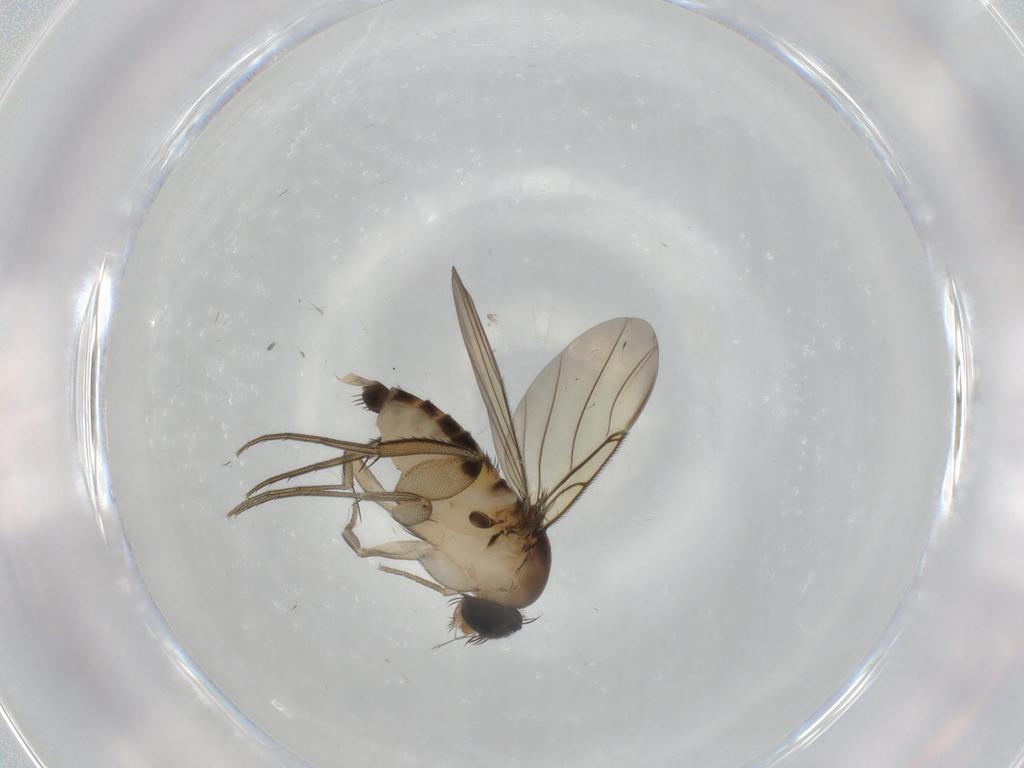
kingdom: Animalia
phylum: Arthropoda
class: Insecta
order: Diptera
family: Phoridae
